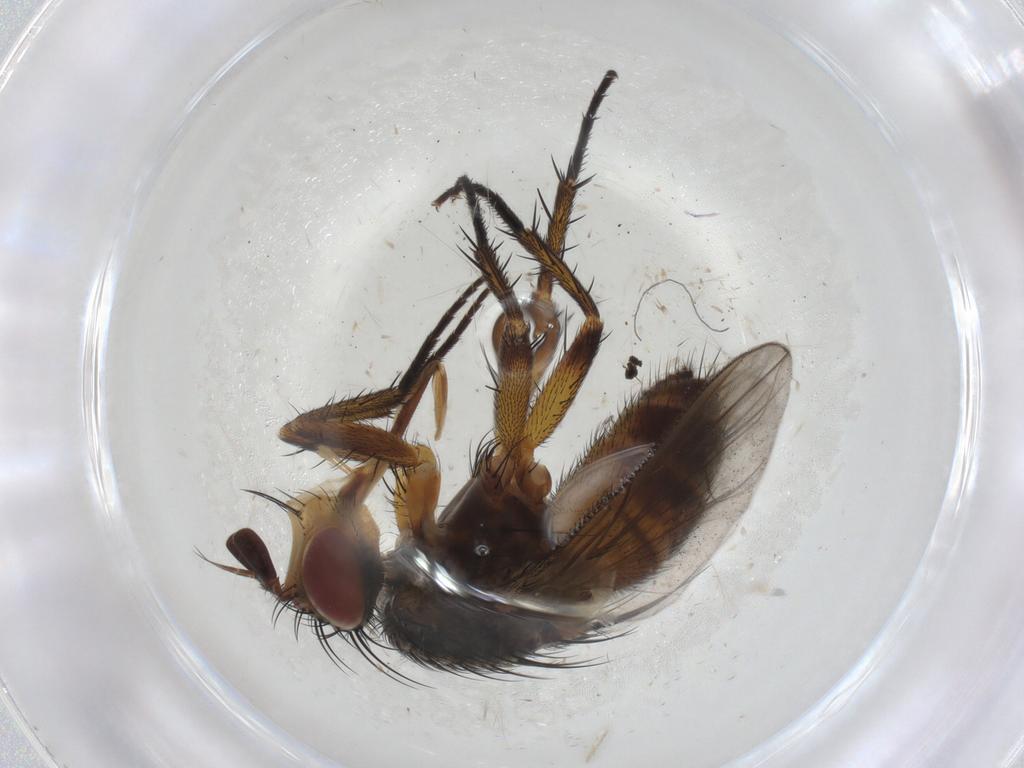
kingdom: Animalia
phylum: Arthropoda
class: Insecta
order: Diptera
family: Tachinidae
